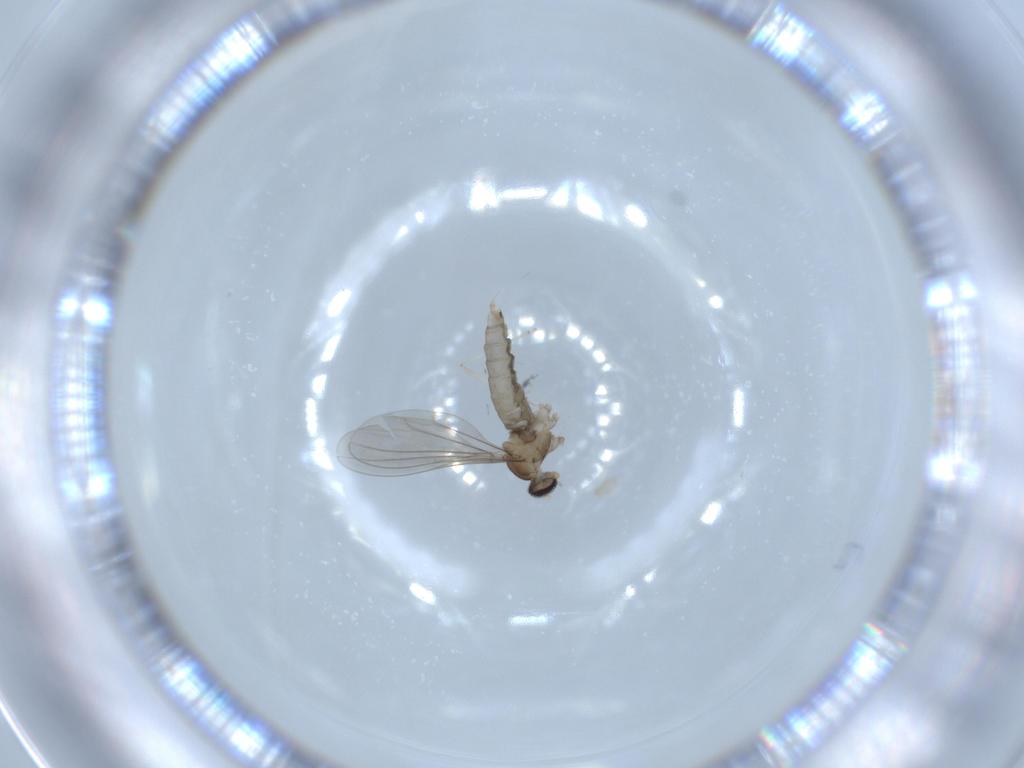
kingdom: Animalia
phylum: Arthropoda
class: Insecta
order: Diptera
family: Cecidomyiidae
